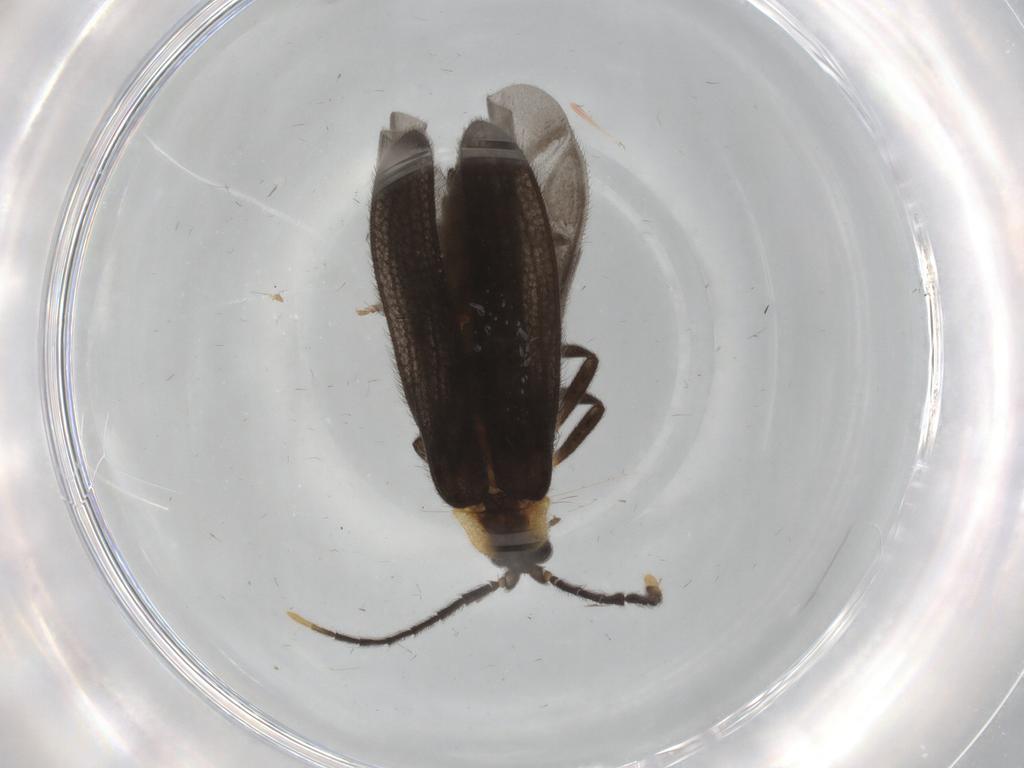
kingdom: Animalia
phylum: Arthropoda
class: Insecta
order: Coleoptera
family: Lycidae
